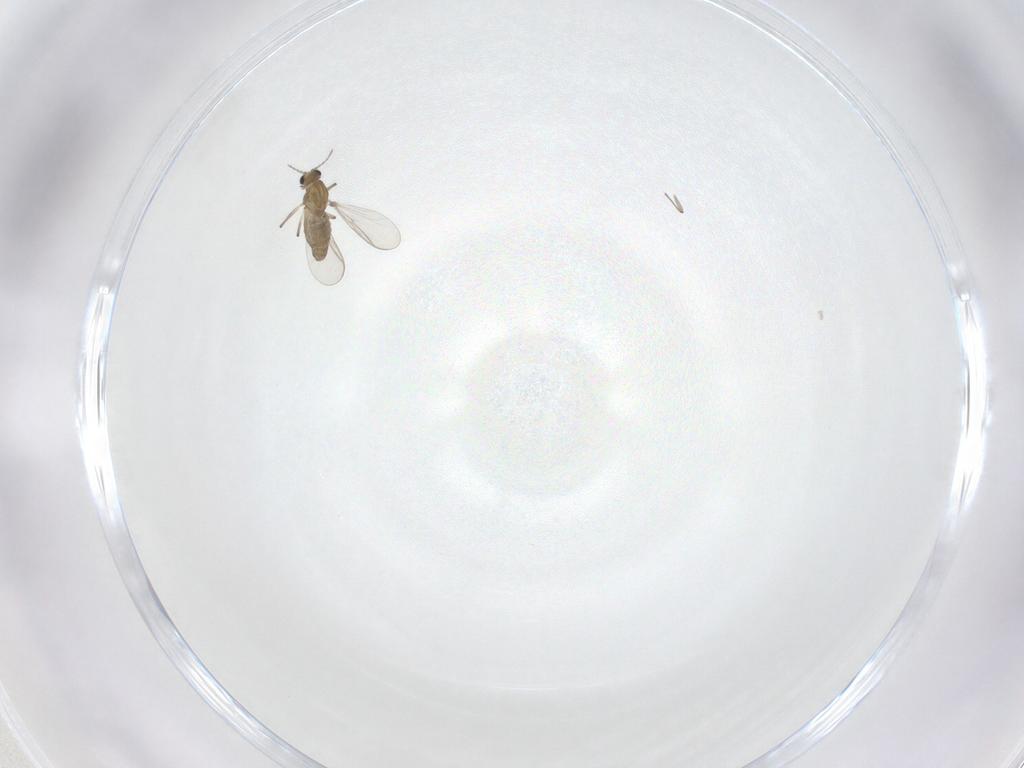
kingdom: Animalia
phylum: Arthropoda
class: Insecta
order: Diptera
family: Chironomidae
